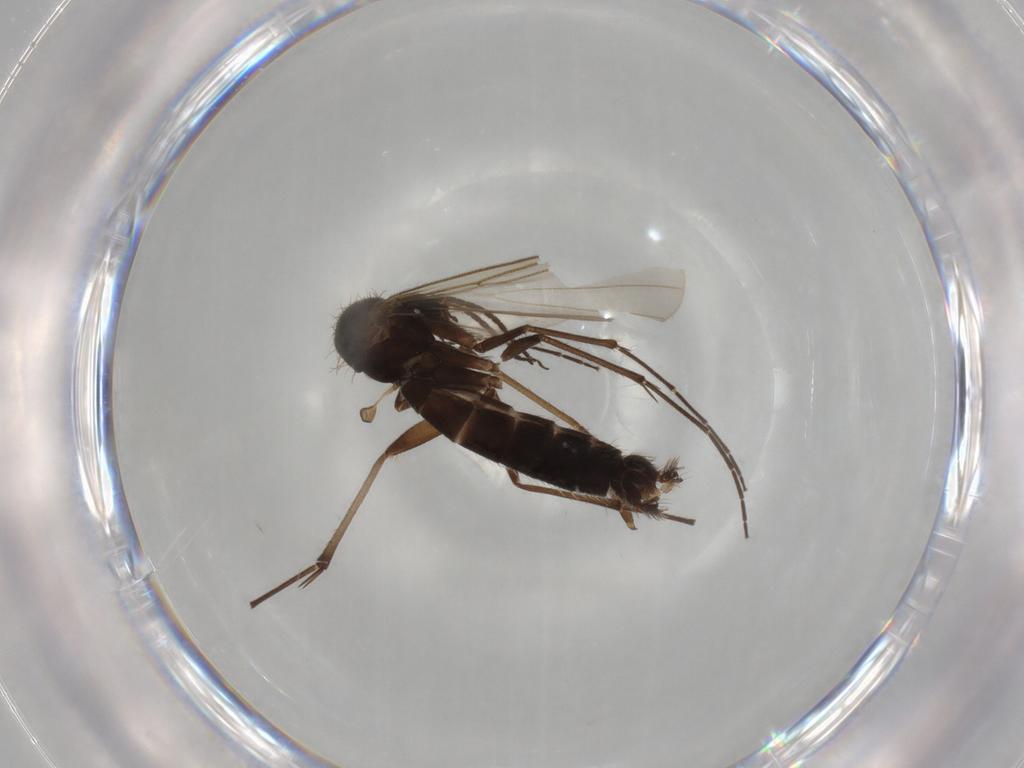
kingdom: Animalia
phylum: Arthropoda
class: Insecta
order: Diptera
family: Mycetophilidae
